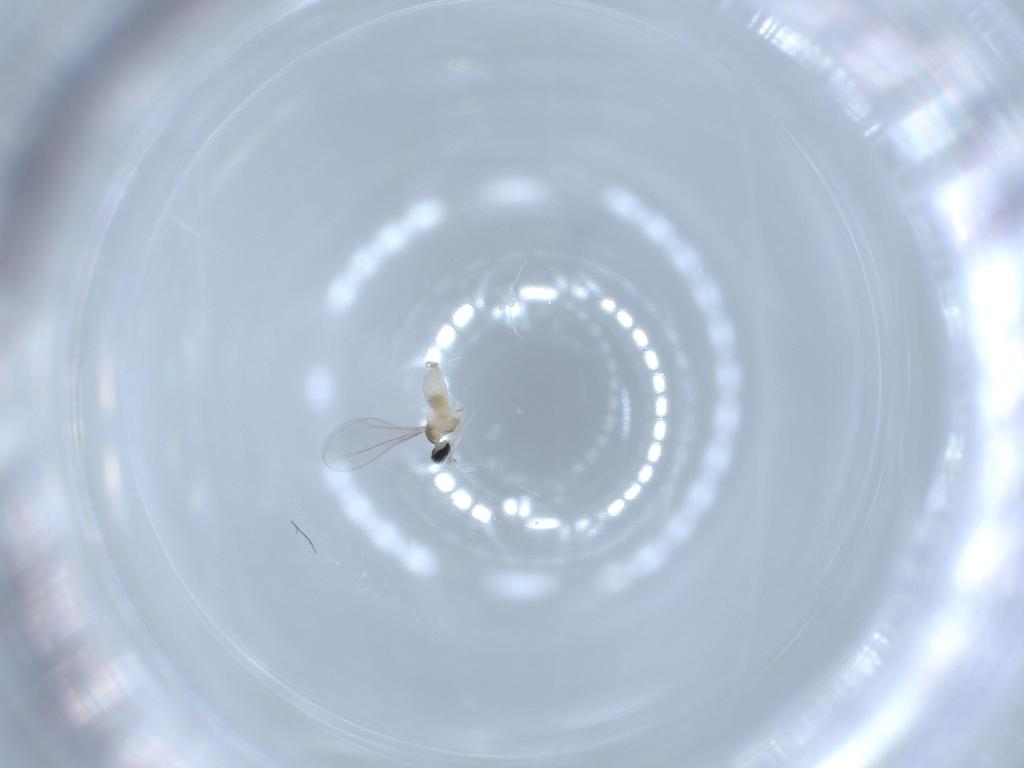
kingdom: Animalia
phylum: Arthropoda
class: Insecta
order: Diptera
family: Cecidomyiidae
